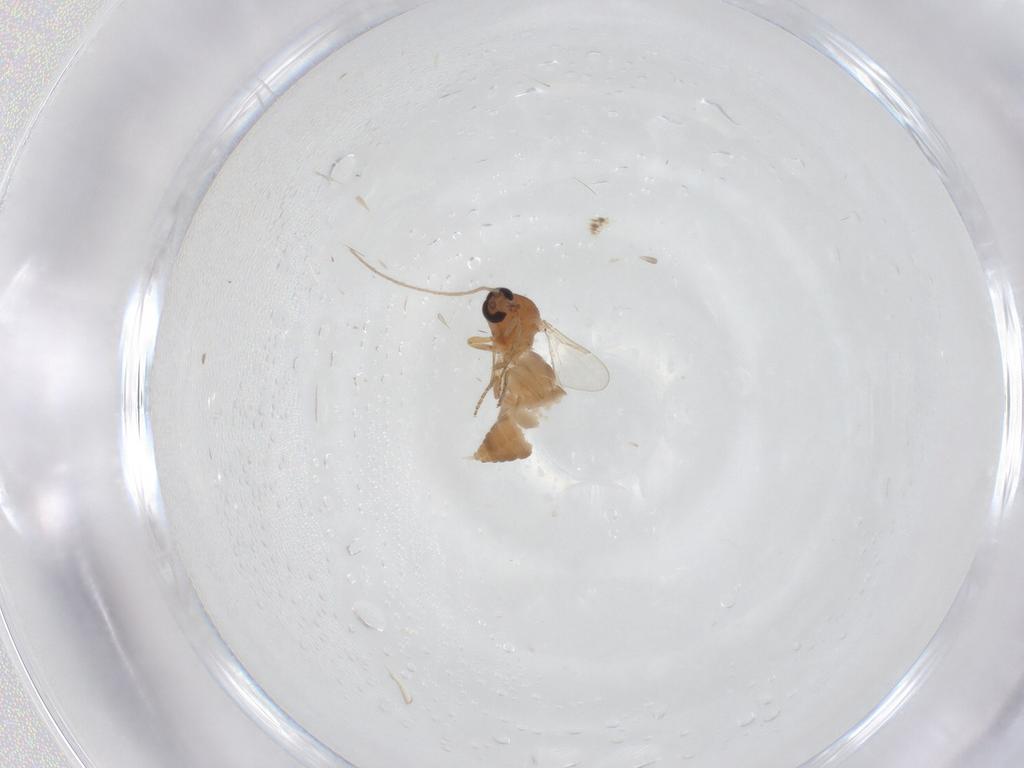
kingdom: Animalia
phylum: Arthropoda
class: Insecta
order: Diptera
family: Ceratopogonidae
